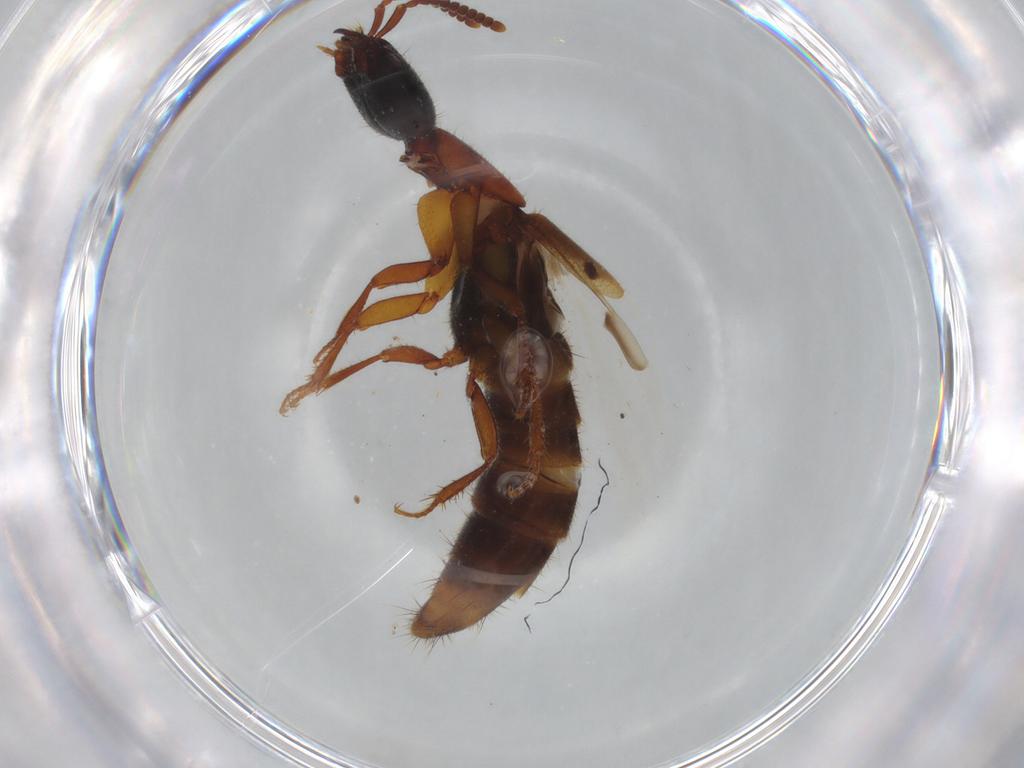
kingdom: Animalia
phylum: Arthropoda
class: Insecta
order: Coleoptera
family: Staphylinidae
